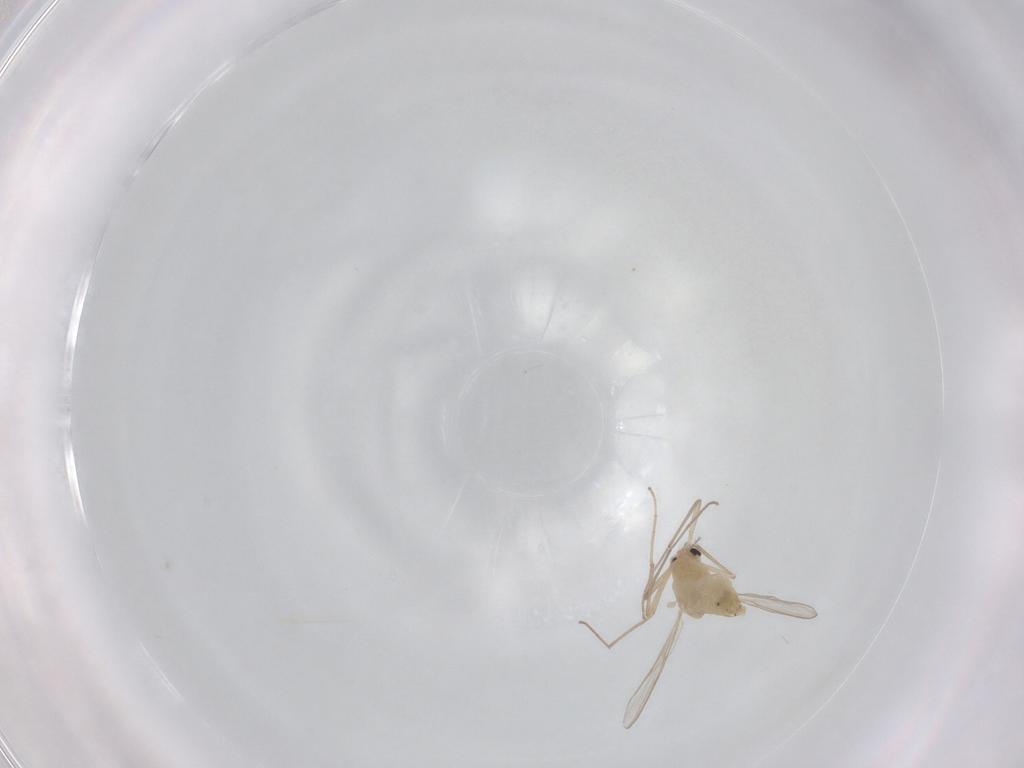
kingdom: Animalia
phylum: Arthropoda
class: Insecta
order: Diptera
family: Chironomidae
